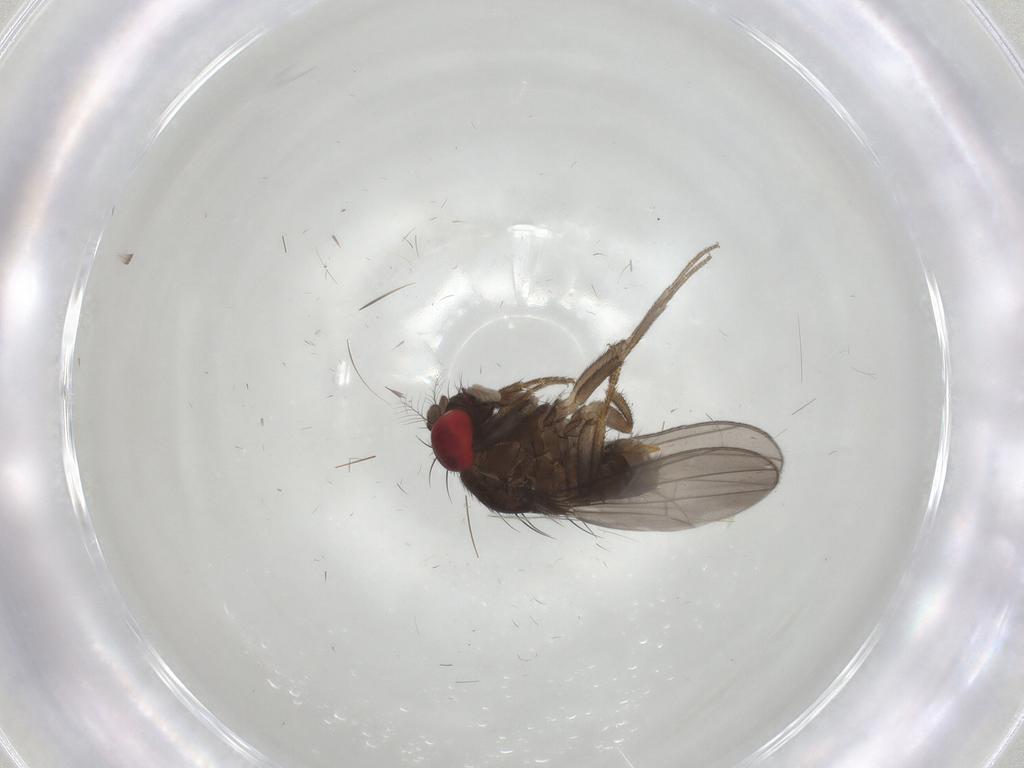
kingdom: Animalia
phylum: Arthropoda
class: Insecta
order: Diptera
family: Drosophilidae
